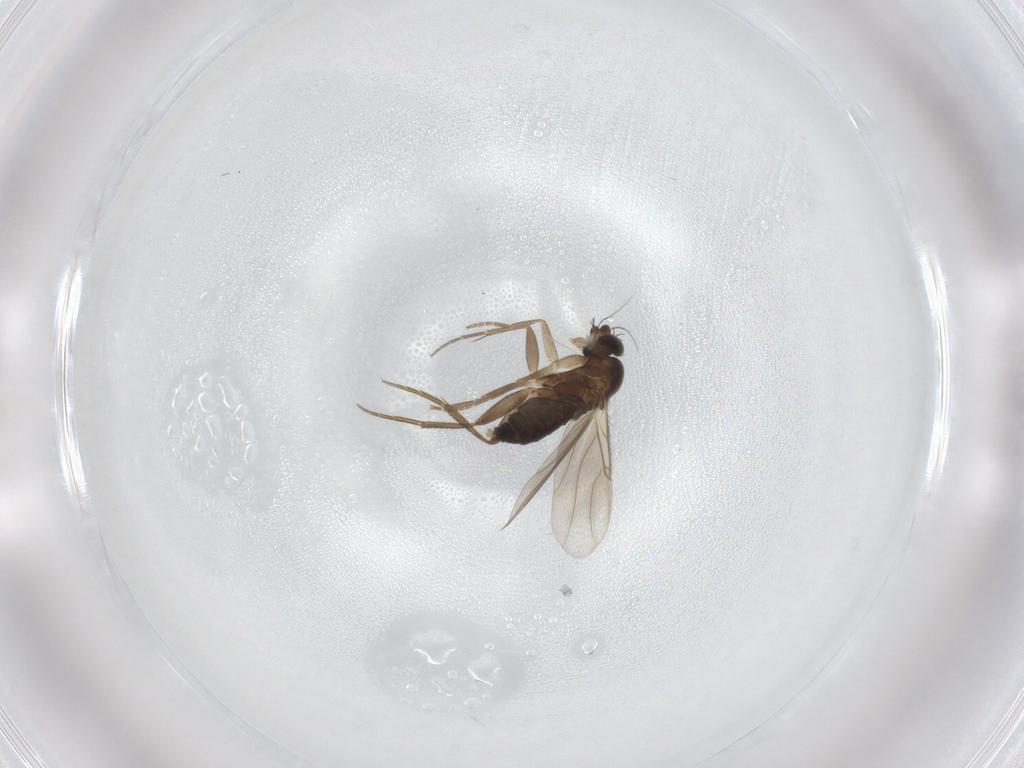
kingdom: Animalia
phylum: Arthropoda
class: Insecta
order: Diptera
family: Phoridae
